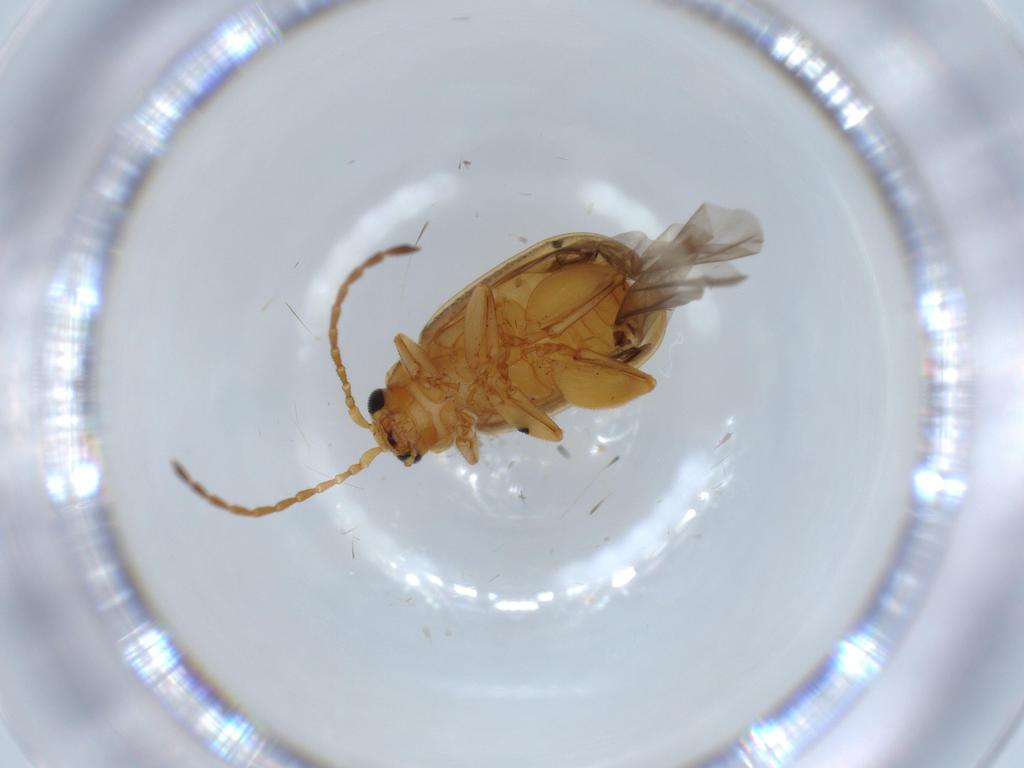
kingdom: Animalia
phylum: Arthropoda
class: Insecta
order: Coleoptera
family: Chrysomelidae
